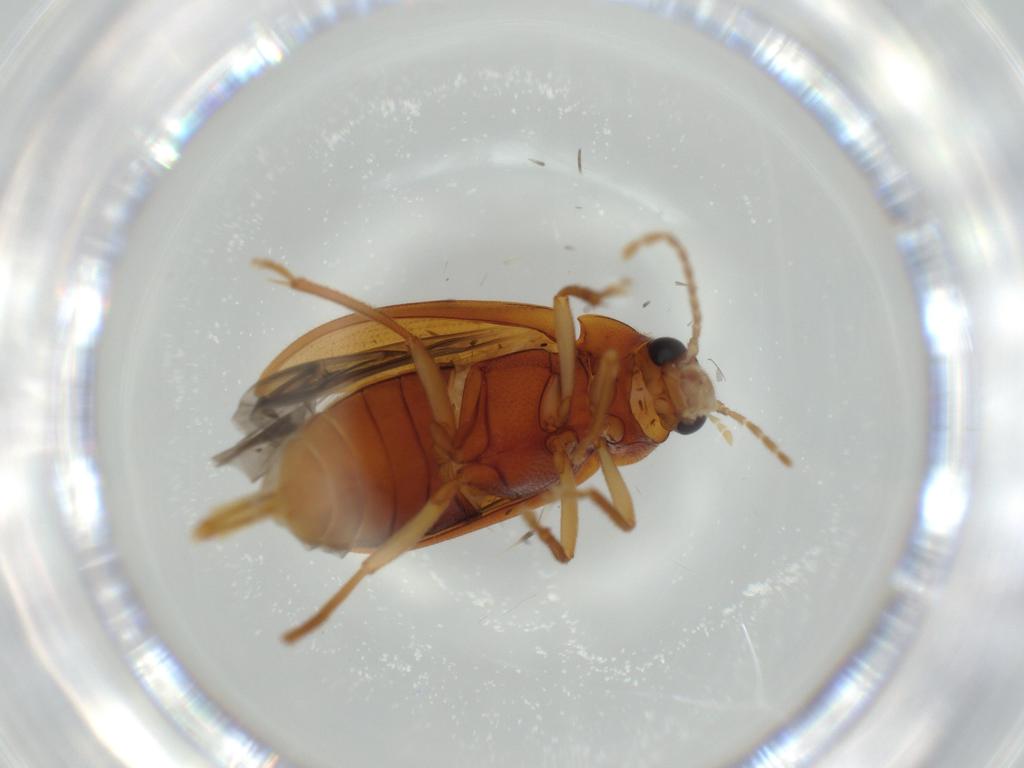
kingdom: Animalia
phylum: Arthropoda
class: Insecta
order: Coleoptera
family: Ptilodactylidae
